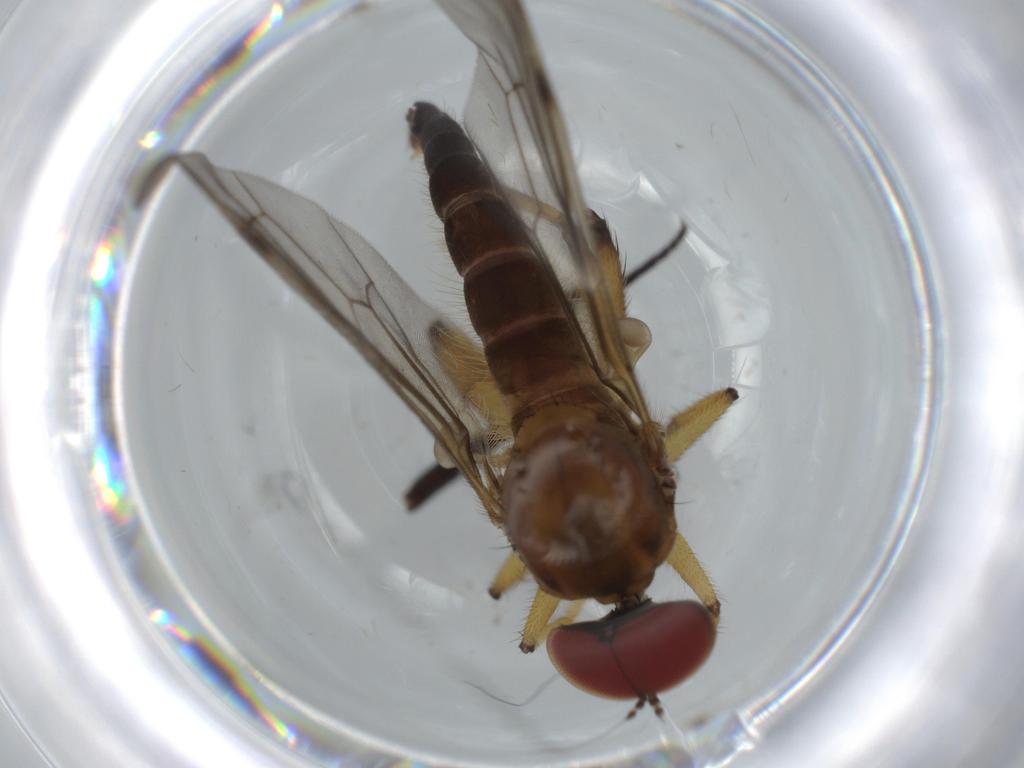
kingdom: Animalia
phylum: Arthropoda
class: Insecta
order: Diptera
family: Hybotidae
